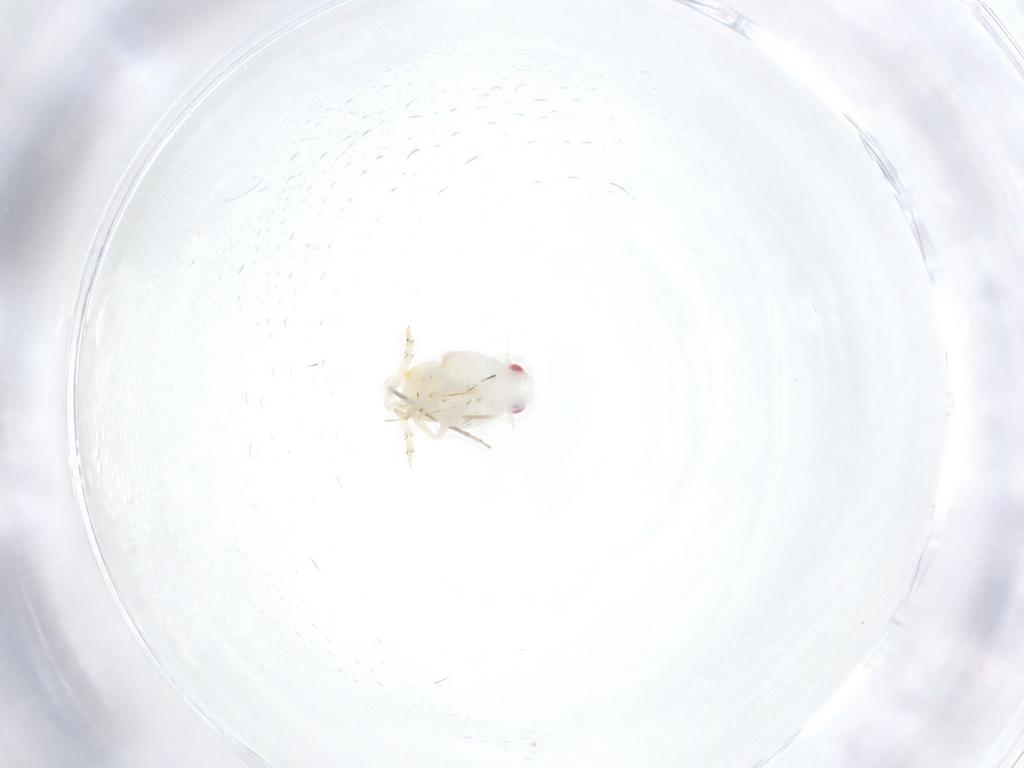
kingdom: Animalia
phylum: Arthropoda
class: Insecta
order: Hemiptera
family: Flatidae
